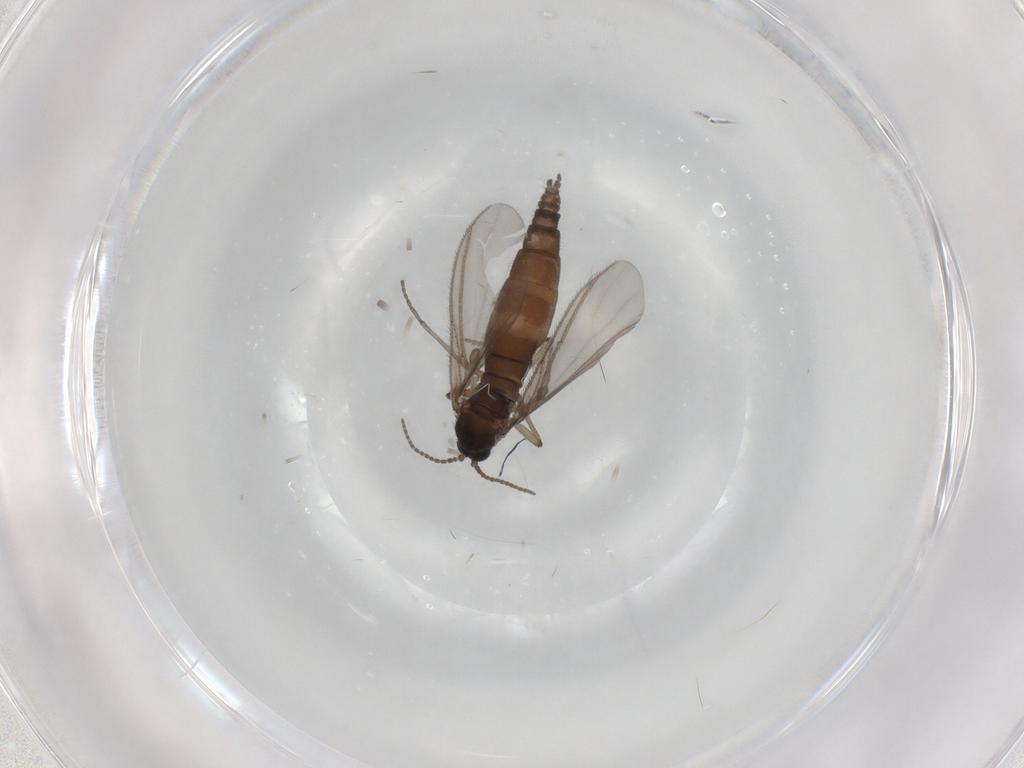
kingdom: Animalia
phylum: Arthropoda
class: Insecta
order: Diptera
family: Sciaridae
